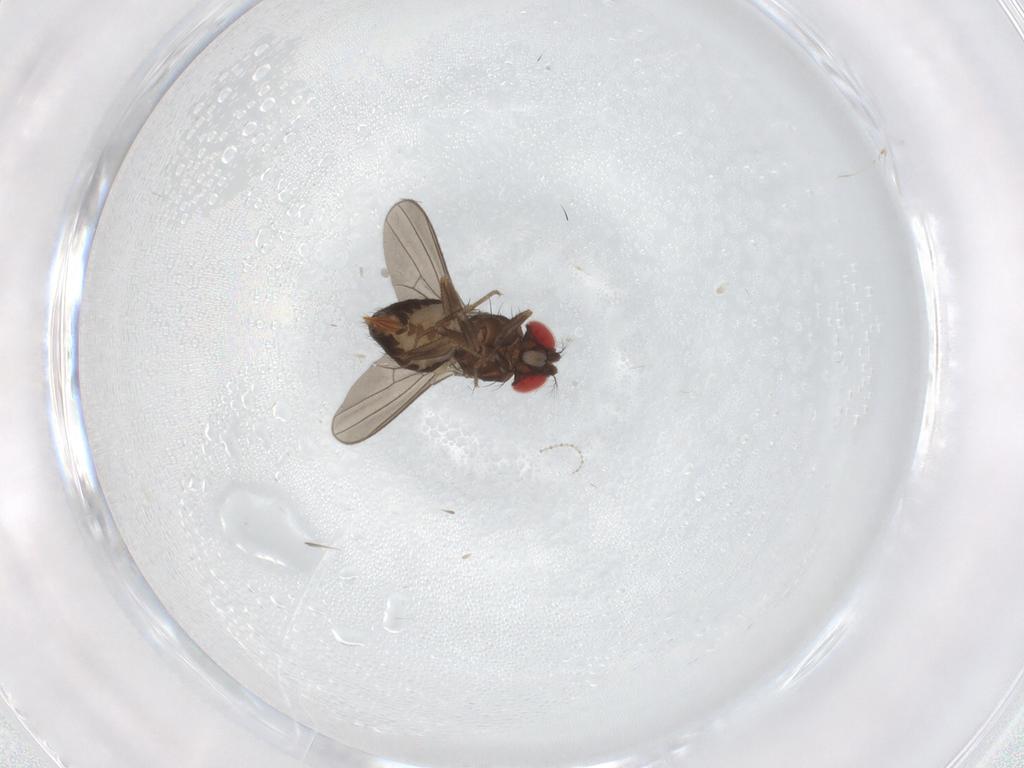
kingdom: Animalia
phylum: Arthropoda
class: Insecta
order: Diptera
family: Drosophilidae
